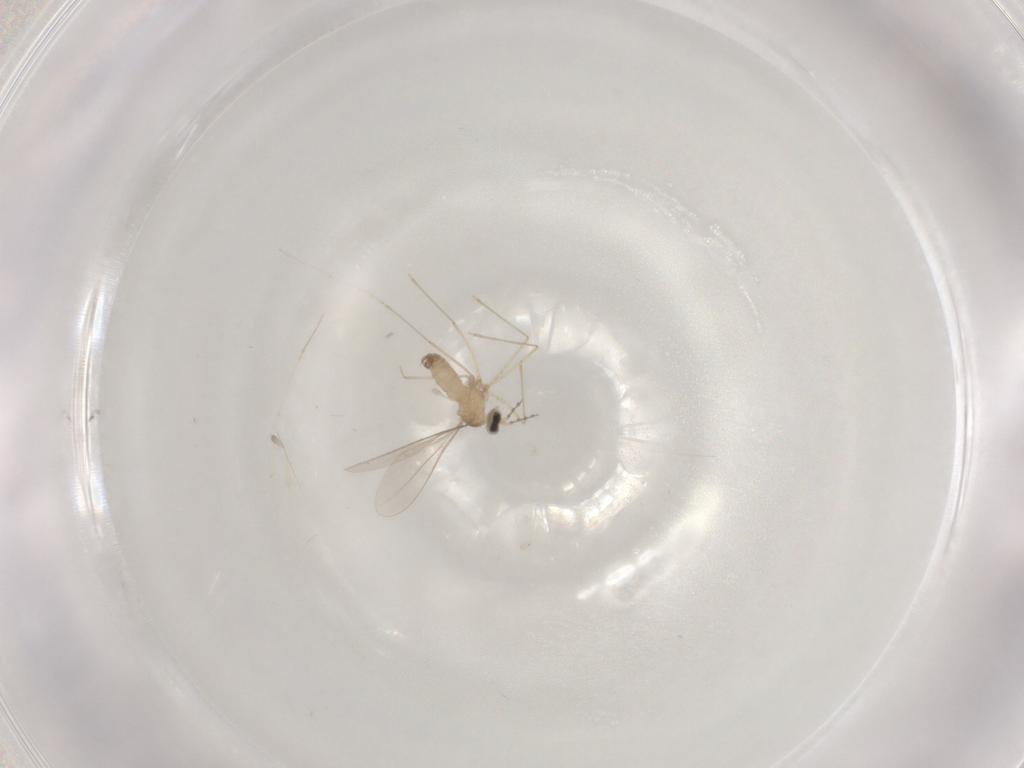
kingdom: Animalia
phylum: Arthropoda
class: Insecta
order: Diptera
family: Cecidomyiidae
